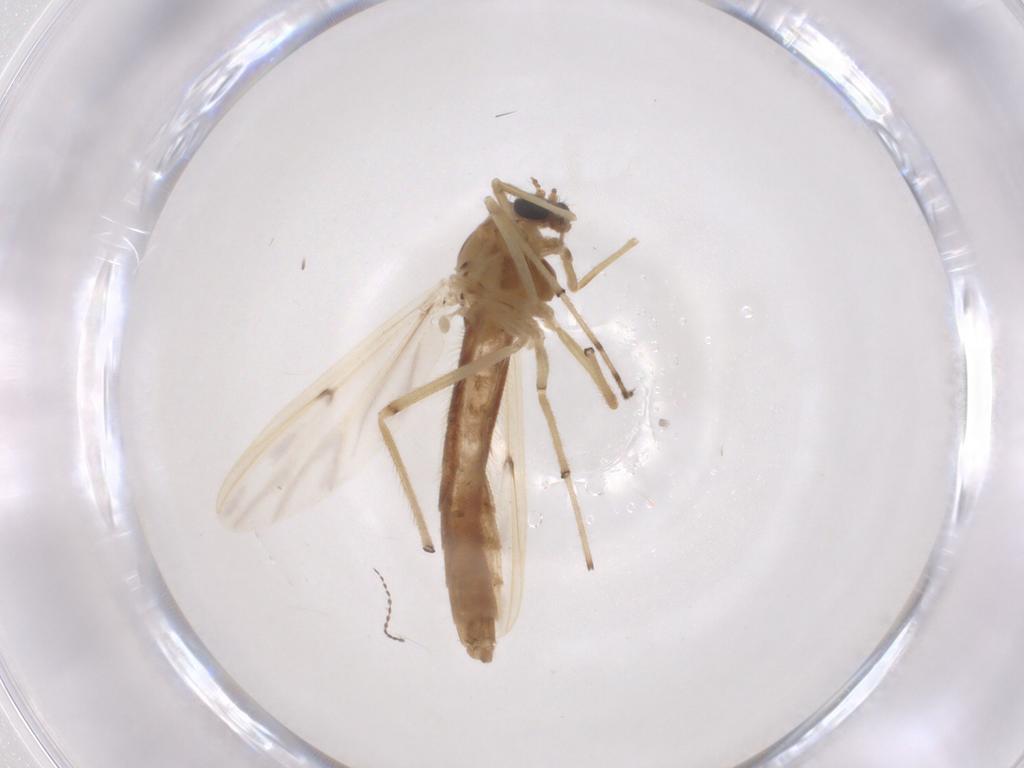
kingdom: Animalia
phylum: Arthropoda
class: Insecta
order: Diptera
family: Chironomidae
